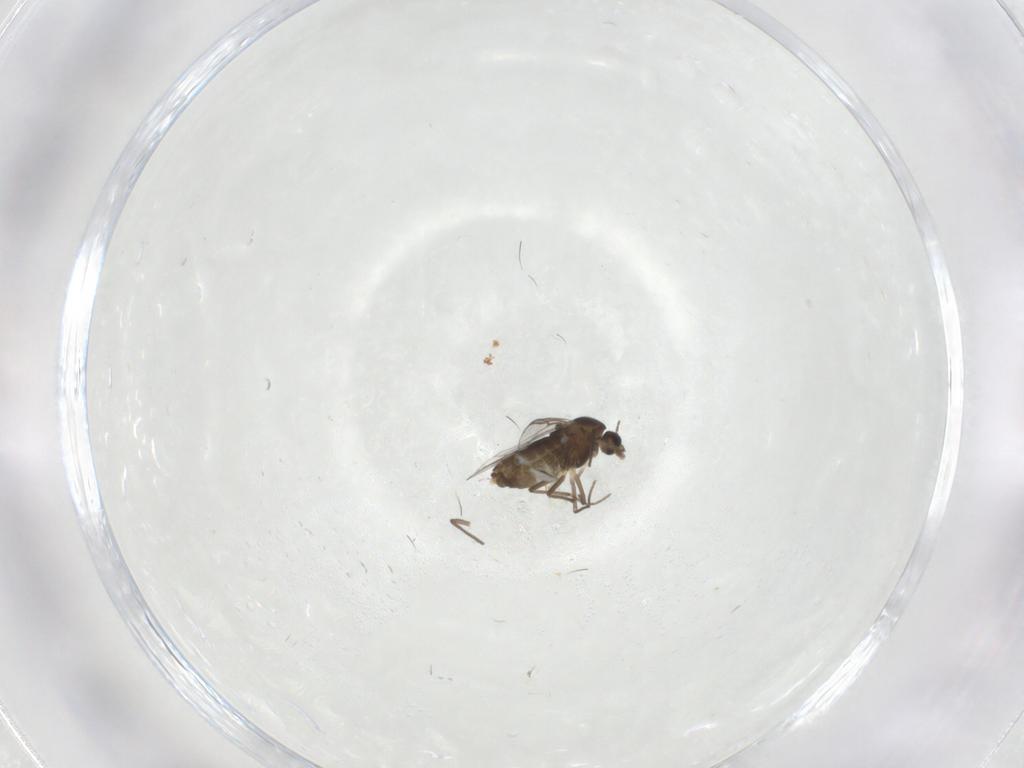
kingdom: Animalia
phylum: Arthropoda
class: Insecta
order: Diptera
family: Chironomidae
